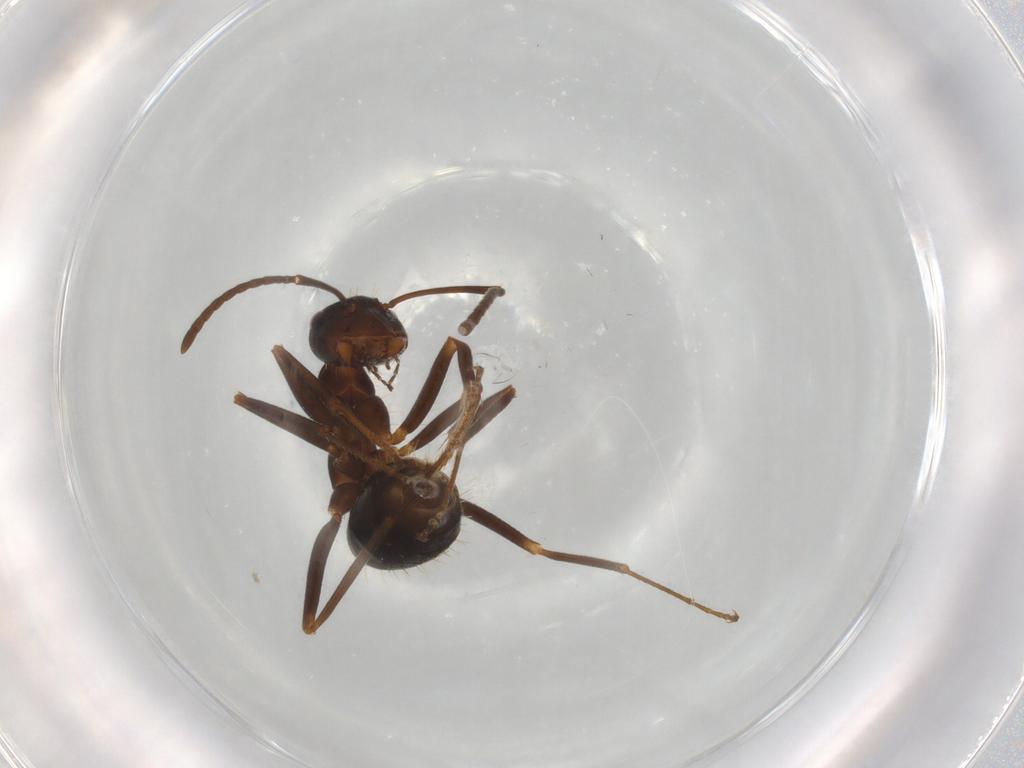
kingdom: Animalia
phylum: Arthropoda
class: Insecta
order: Hymenoptera
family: Formicidae
